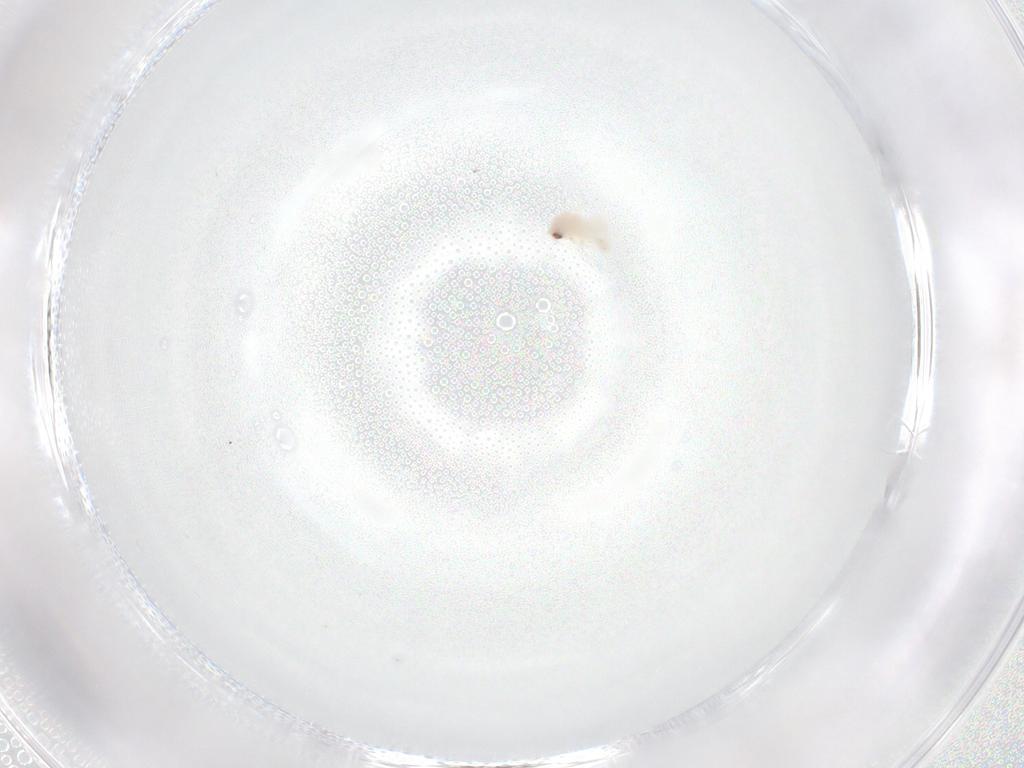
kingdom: Animalia
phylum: Arthropoda
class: Insecta
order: Hemiptera
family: Aleyrodidae
